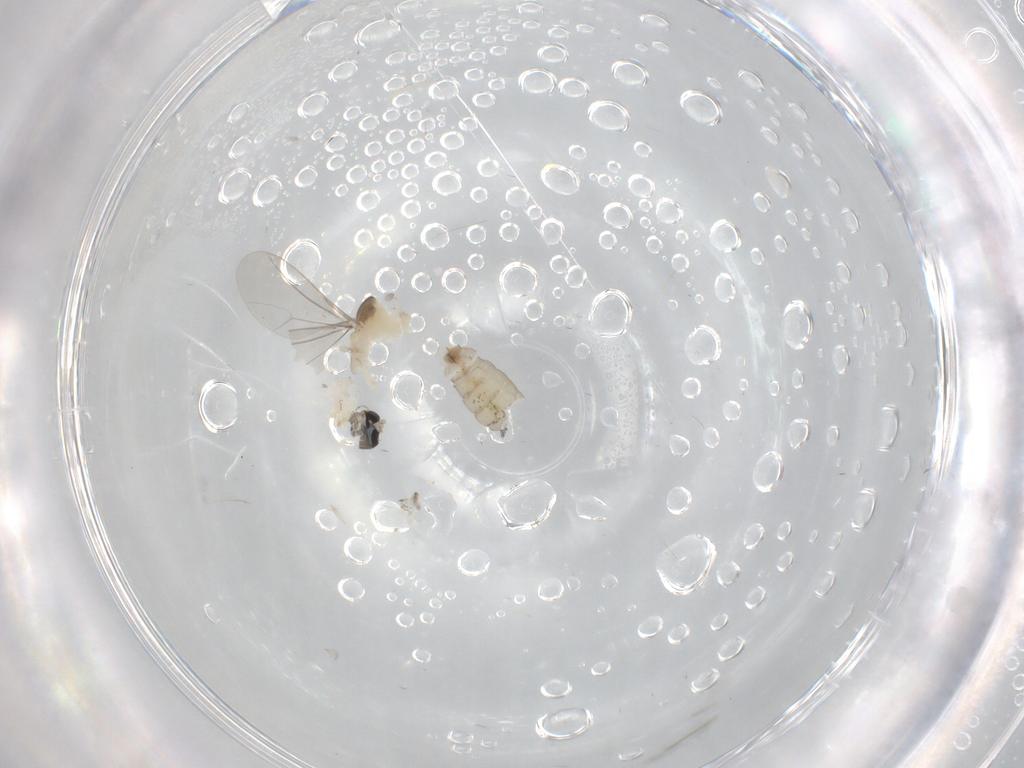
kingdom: Animalia
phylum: Arthropoda
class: Insecta
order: Diptera
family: Cecidomyiidae
